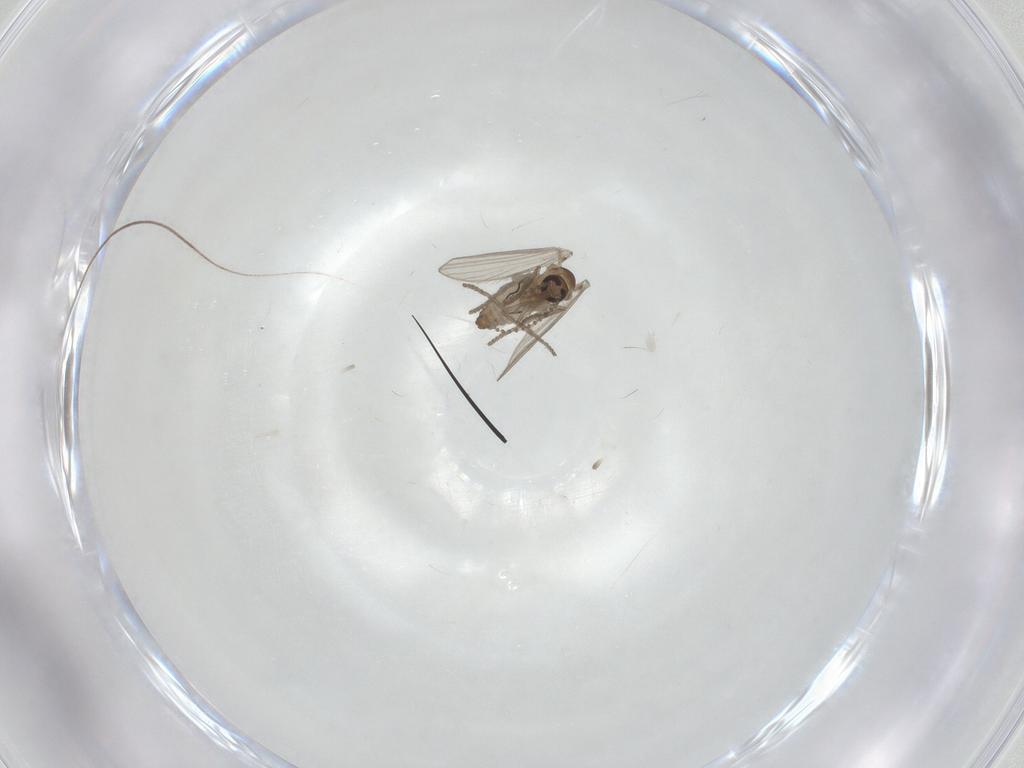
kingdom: Animalia
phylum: Arthropoda
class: Insecta
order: Diptera
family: Psychodidae
